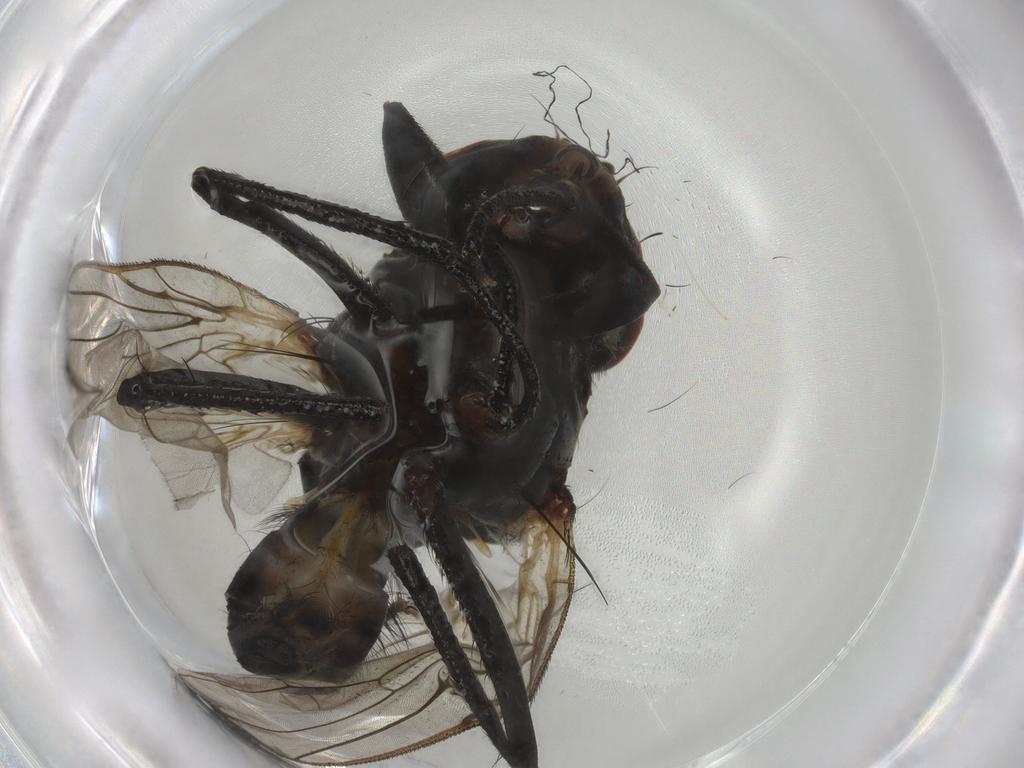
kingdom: Animalia
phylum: Arthropoda
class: Insecta
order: Diptera
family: Anthomyiidae
